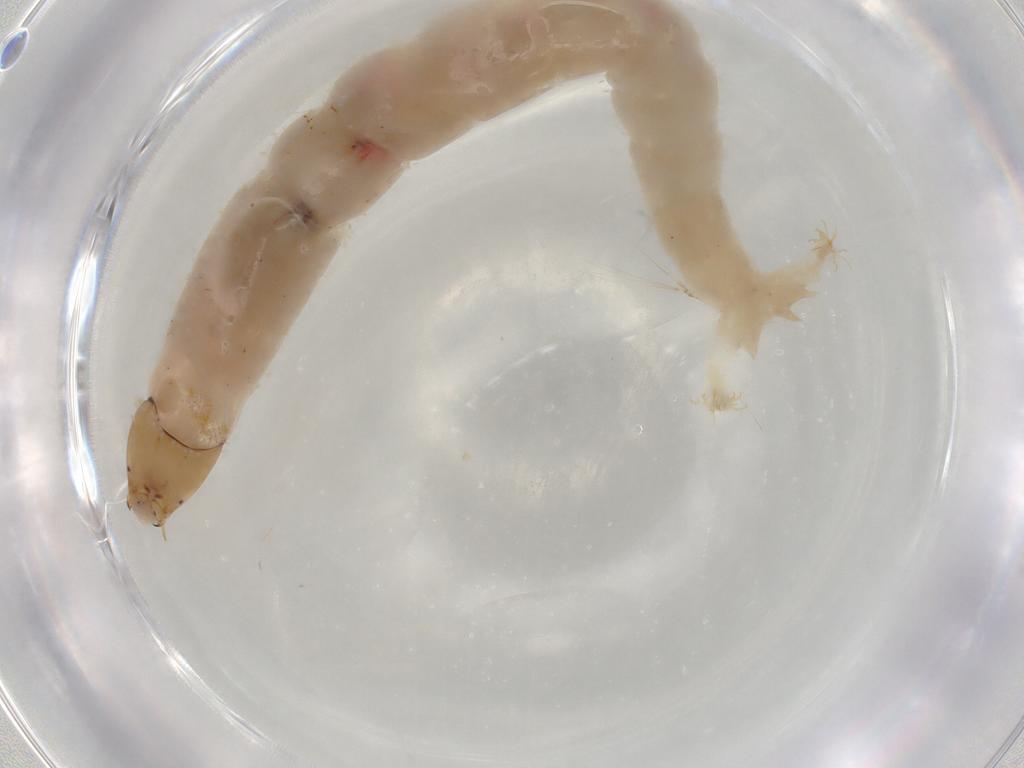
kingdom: Animalia
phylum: Arthropoda
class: Insecta
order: Diptera
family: Chironomidae
